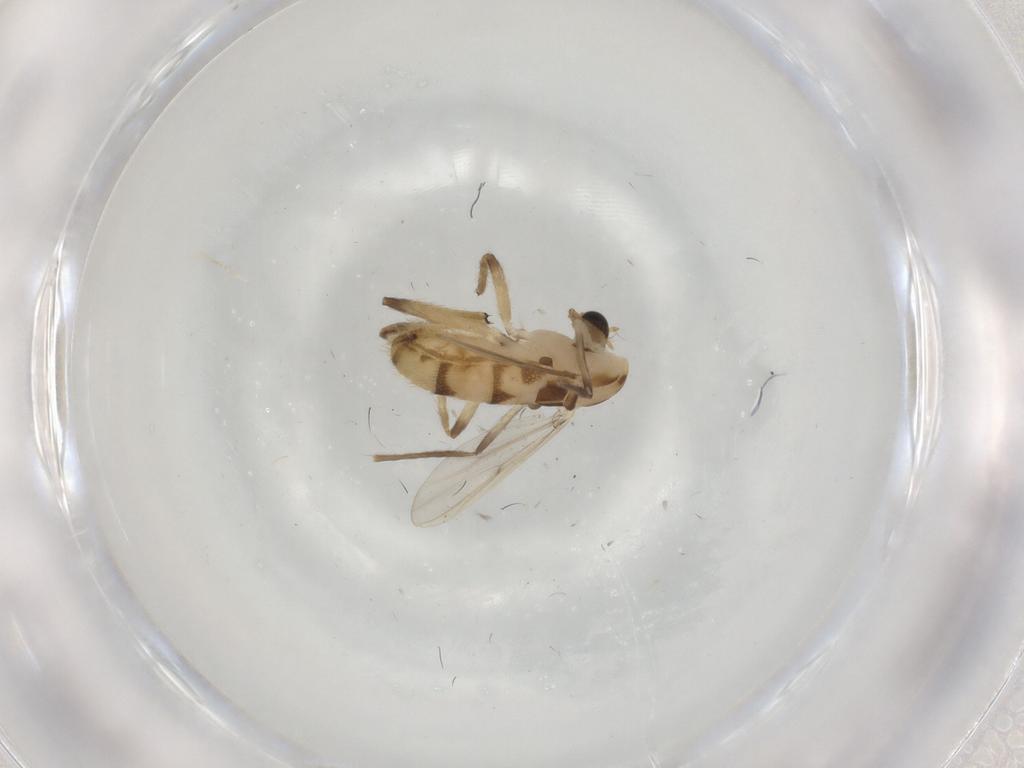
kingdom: Animalia
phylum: Arthropoda
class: Insecta
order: Diptera
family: Chironomidae
